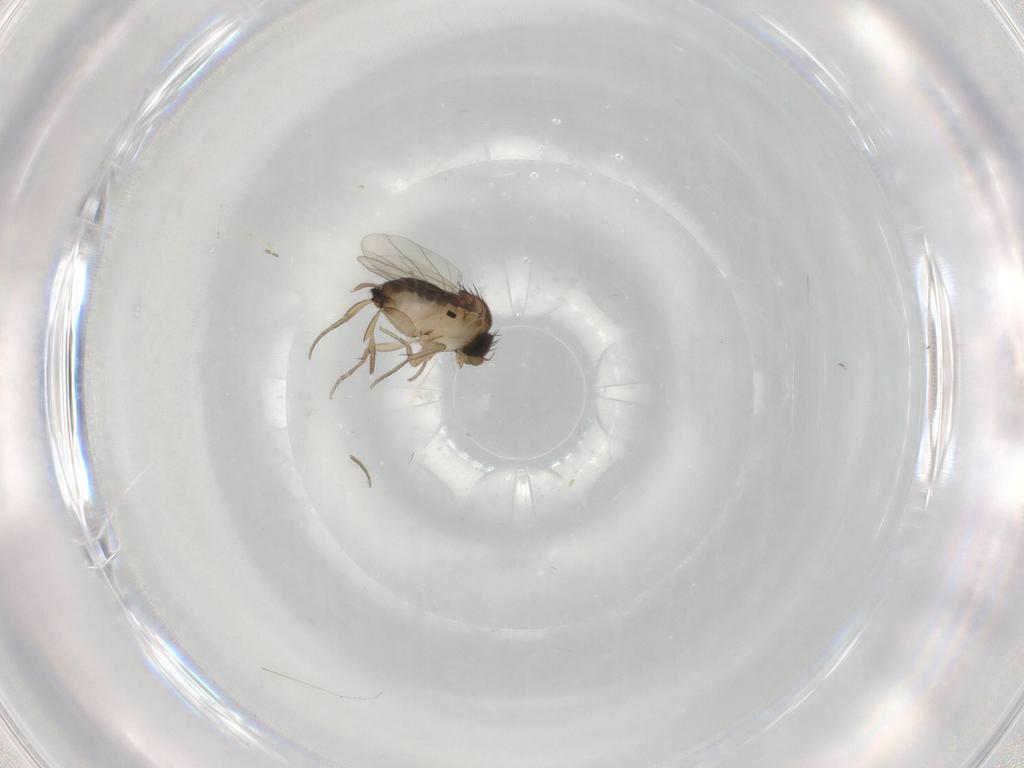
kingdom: Animalia
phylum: Arthropoda
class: Insecta
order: Diptera
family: Cecidomyiidae
